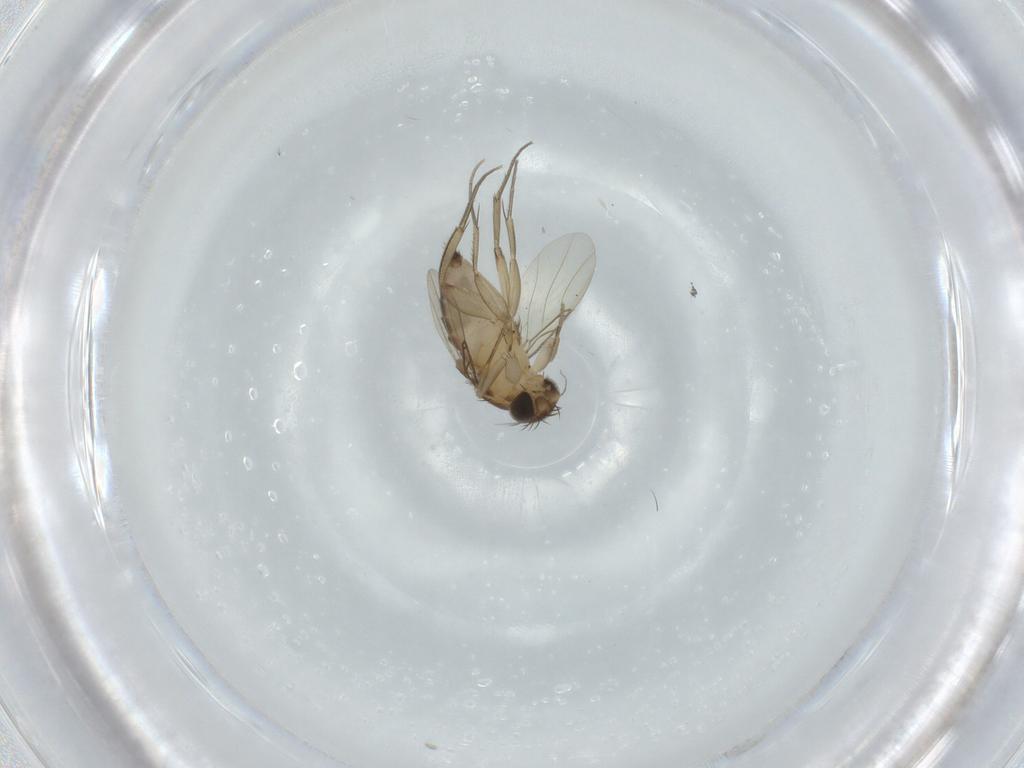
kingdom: Animalia
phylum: Arthropoda
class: Insecta
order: Diptera
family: Phoridae
